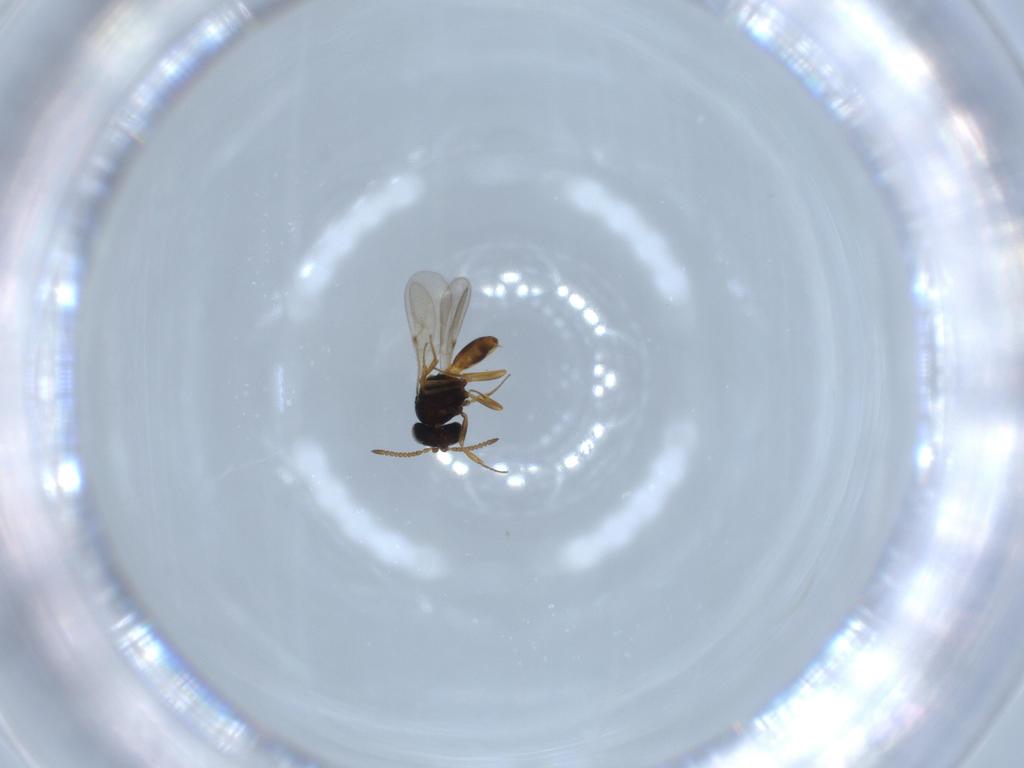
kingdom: Animalia
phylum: Arthropoda
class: Insecta
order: Hymenoptera
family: Scelionidae
